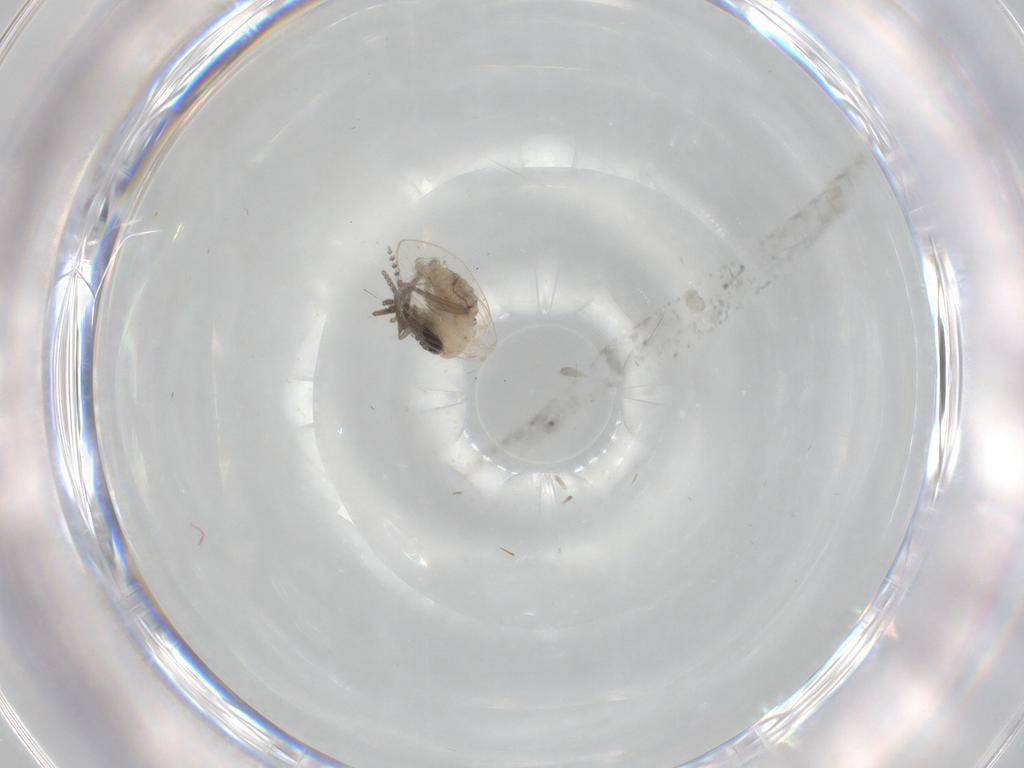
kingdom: Animalia
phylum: Arthropoda
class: Insecta
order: Diptera
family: Psychodidae
